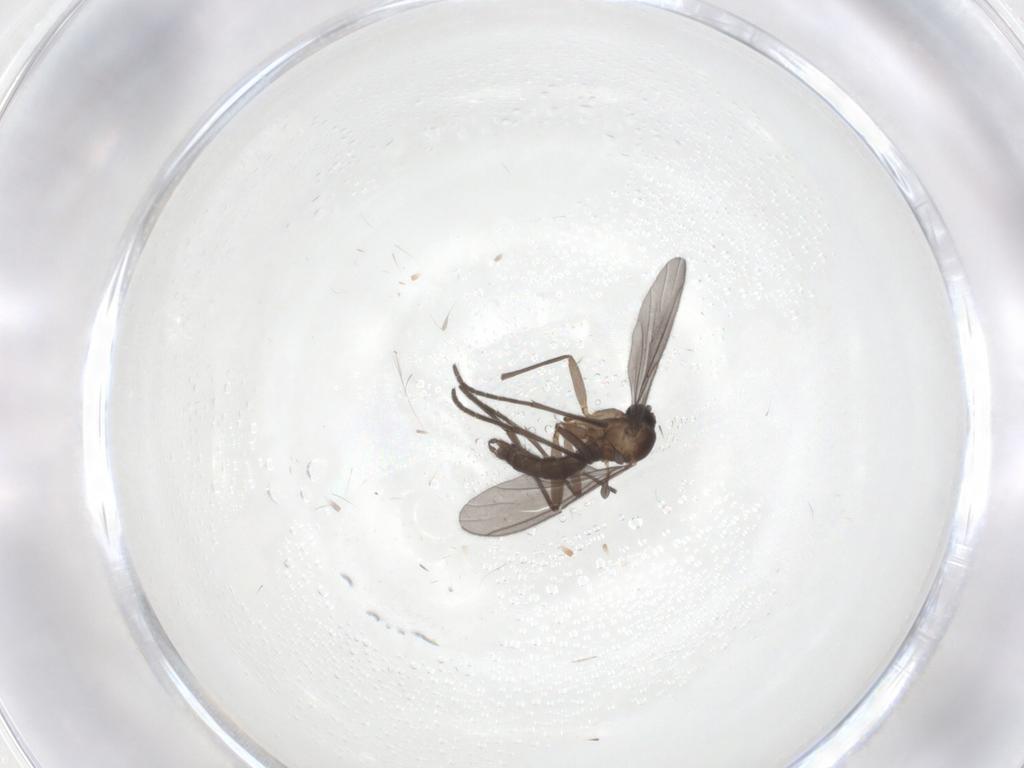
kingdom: Animalia
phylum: Arthropoda
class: Insecta
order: Diptera
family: Sciaridae
